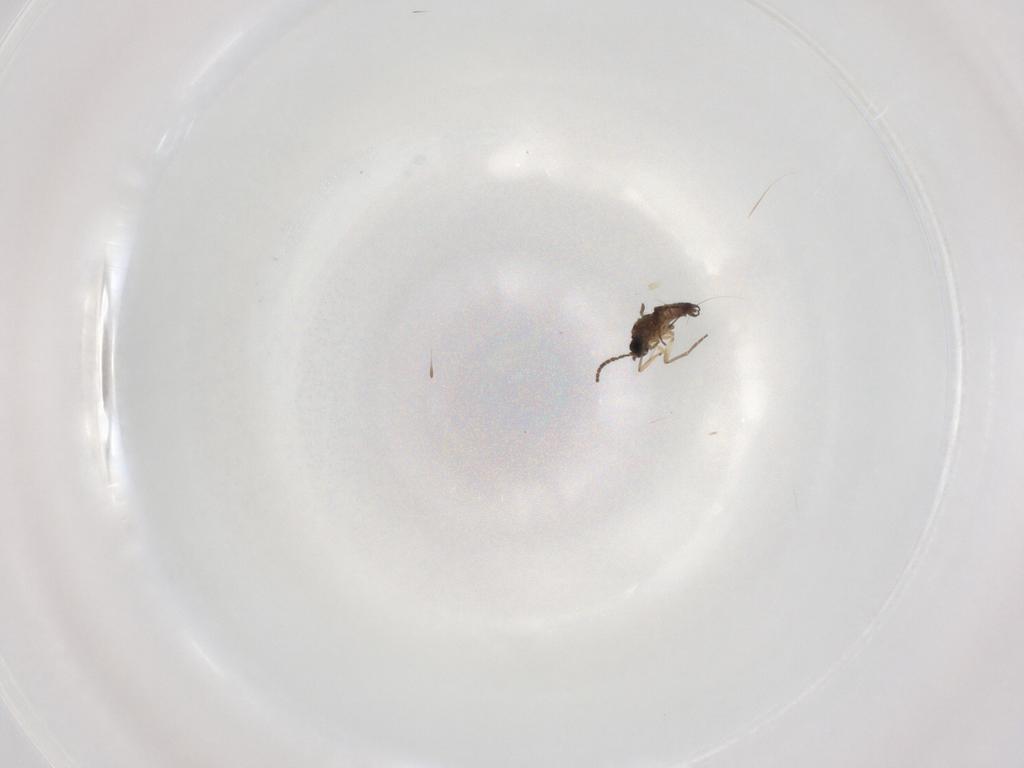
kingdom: Animalia
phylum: Arthropoda
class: Insecta
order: Diptera
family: Sciaridae
